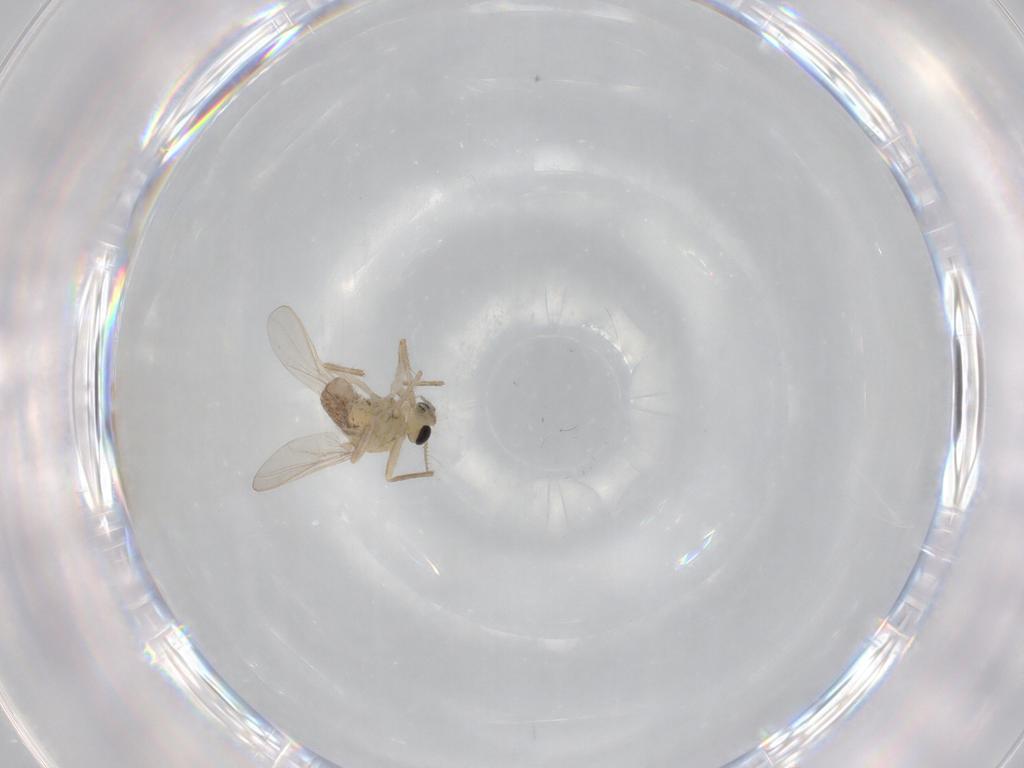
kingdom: Animalia
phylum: Arthropoda
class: Insecta
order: Diptera
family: Chironomidae
